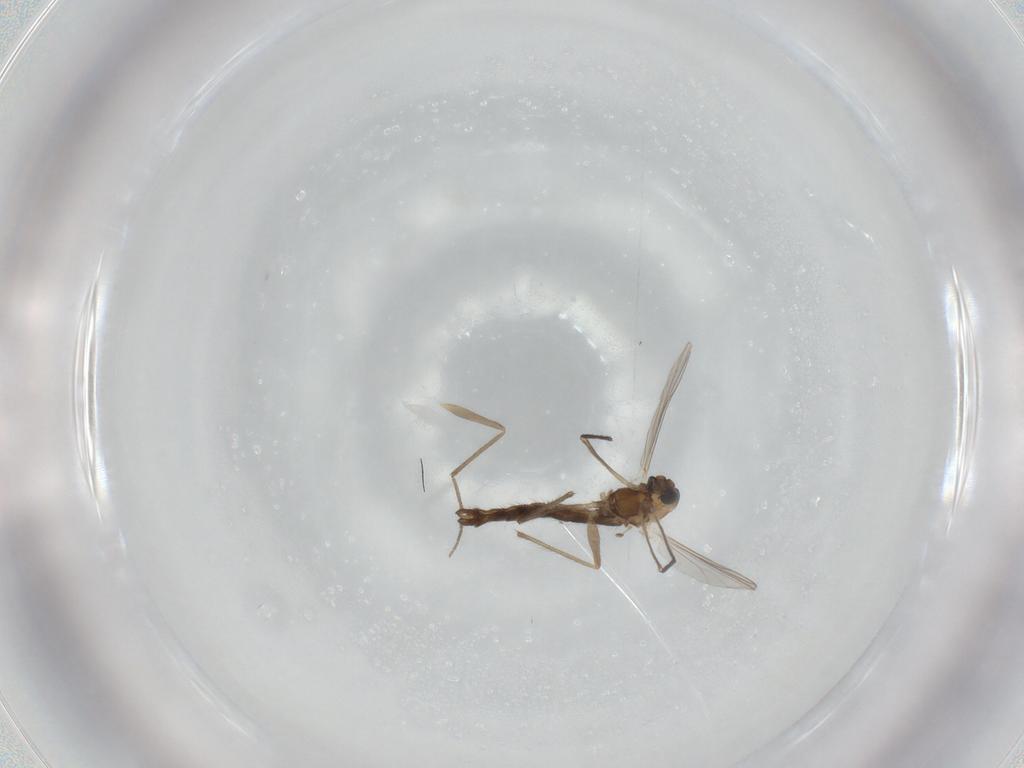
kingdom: Animalia
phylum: Arthropoda
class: Insecta
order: Diptera
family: Chironomidae
